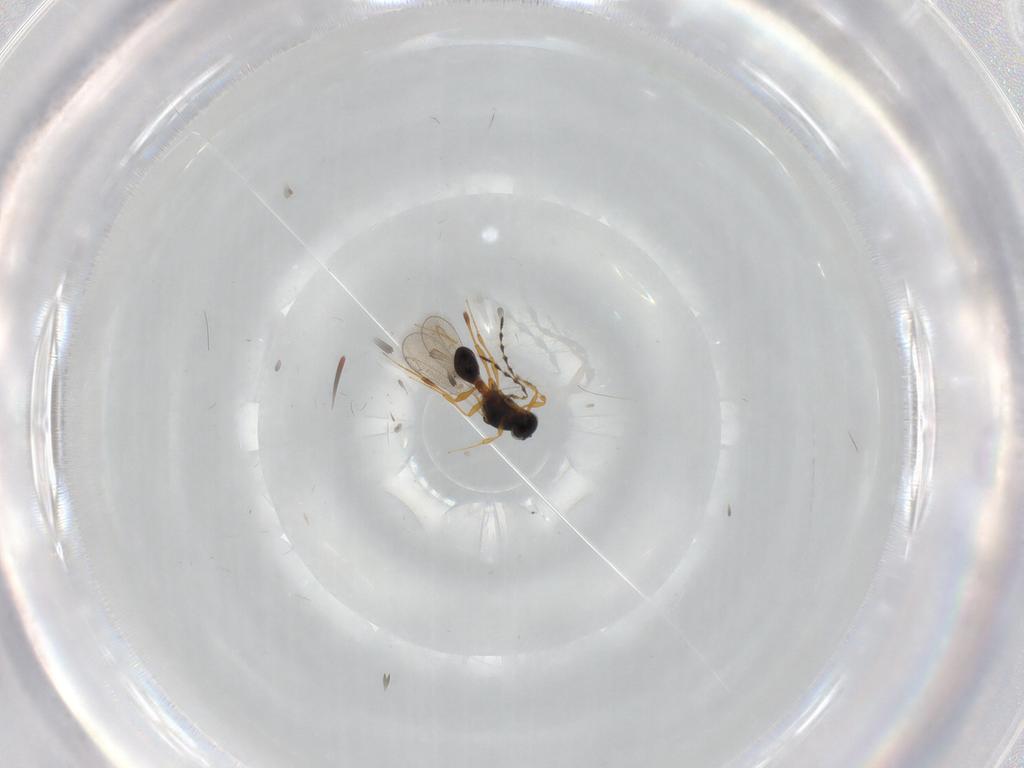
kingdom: Animalia
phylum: Arthropoda
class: Insecta
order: Hymenoptera
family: Platygastridae
